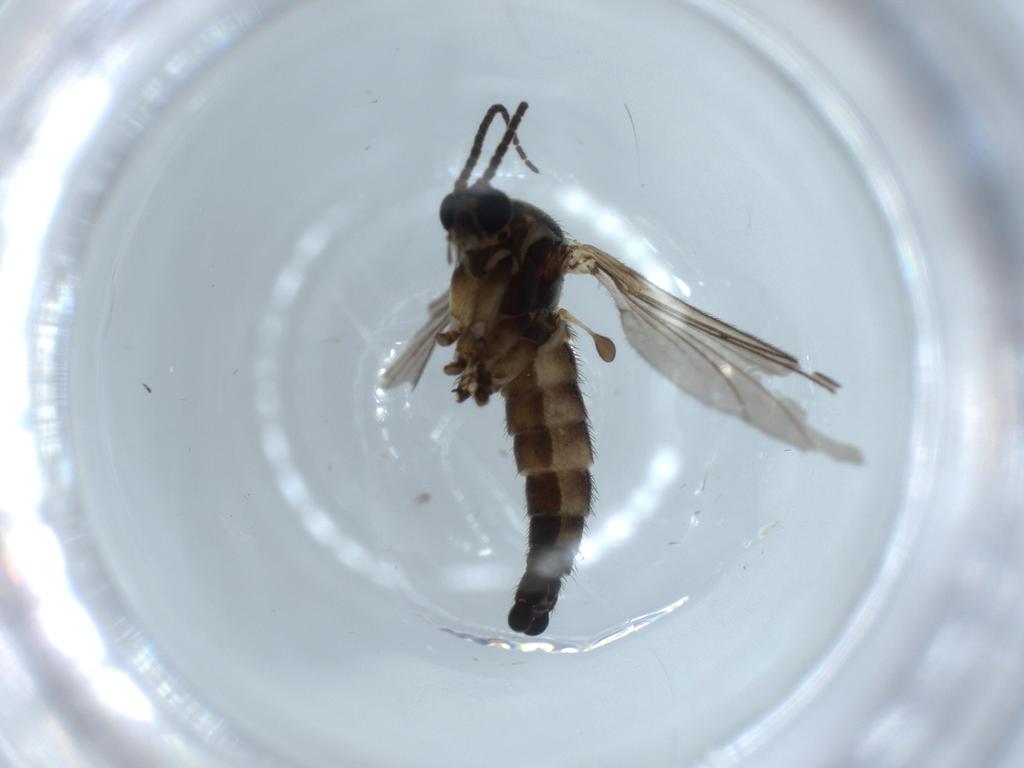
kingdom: Animalia
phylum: Arthropoda
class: Insecta
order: Diptera
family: Sciaridae
